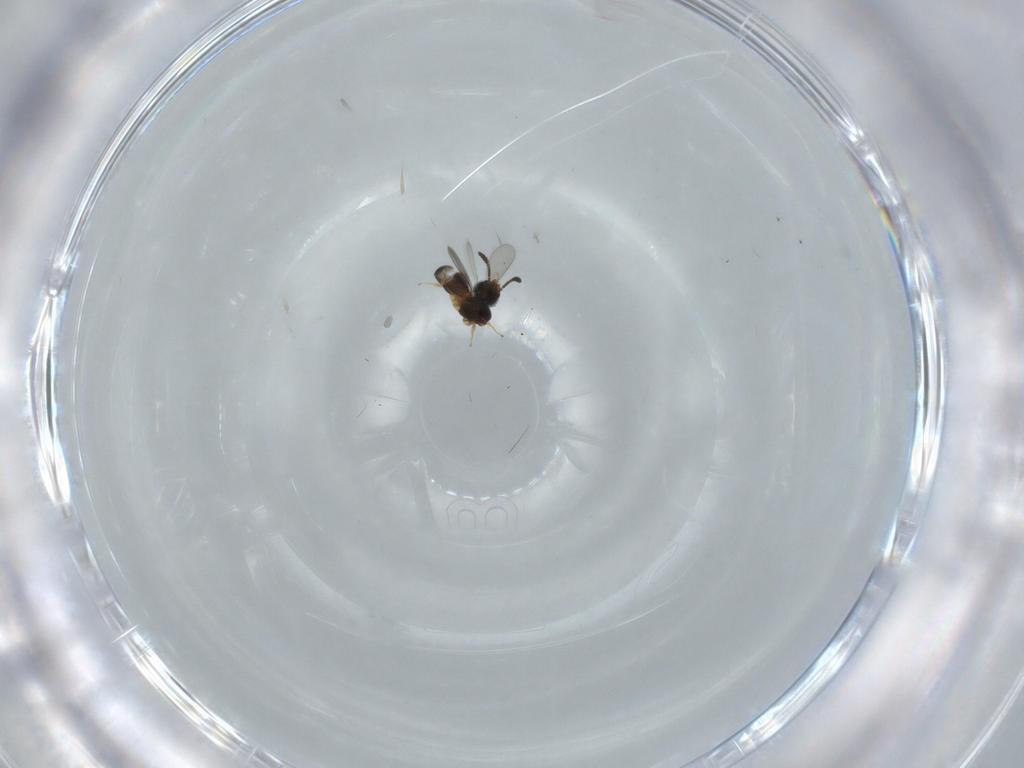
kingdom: Animalia
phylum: Arthropoda
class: Insecta
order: Hymenoptera
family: Scelionidae
